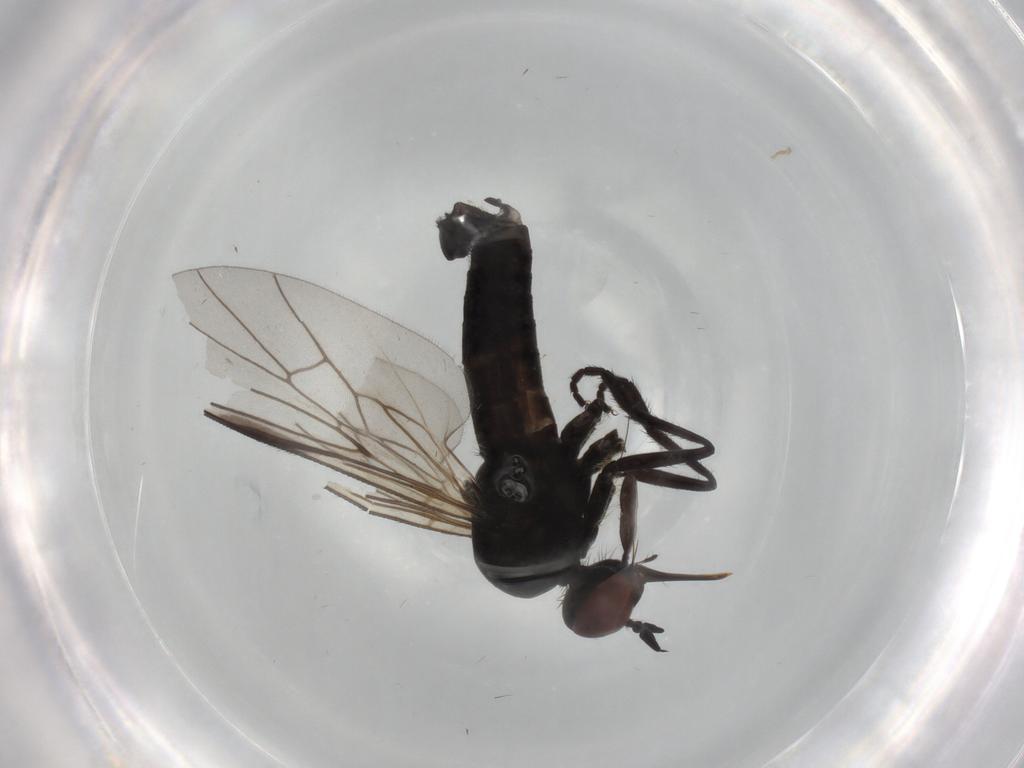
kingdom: Animalia
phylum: Arthropoda
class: Insecta
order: Diptera
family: Empididae
